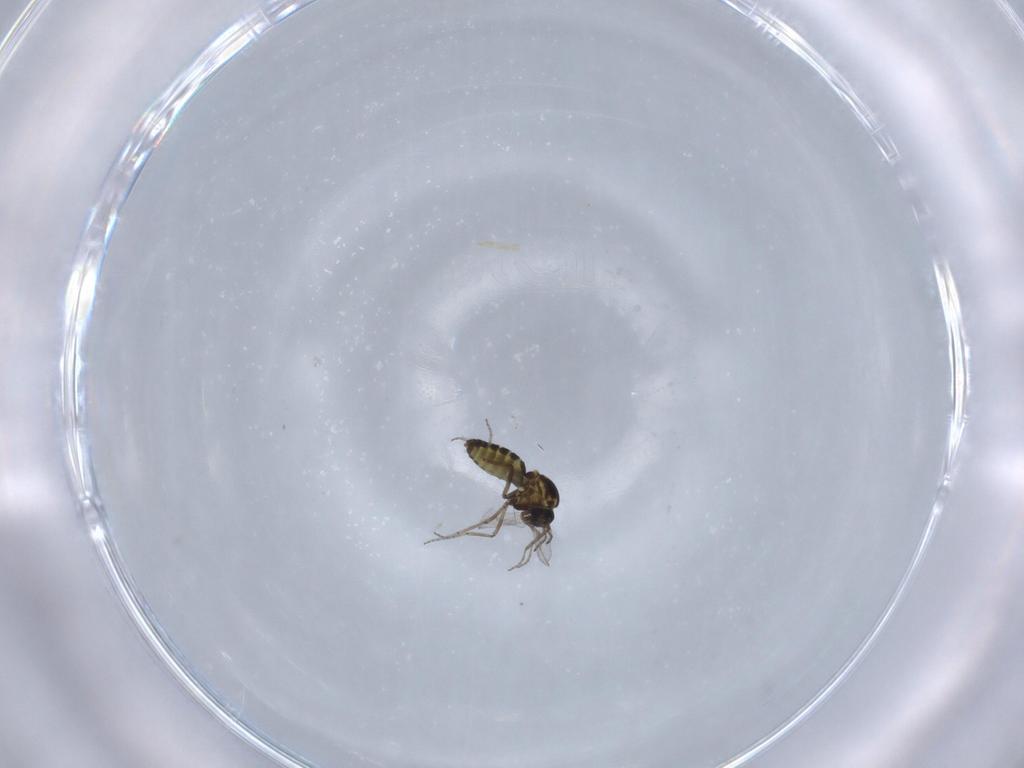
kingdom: Animalia
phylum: Arthropoda
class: Insecta
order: Diptera
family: Ceratopogonidae
